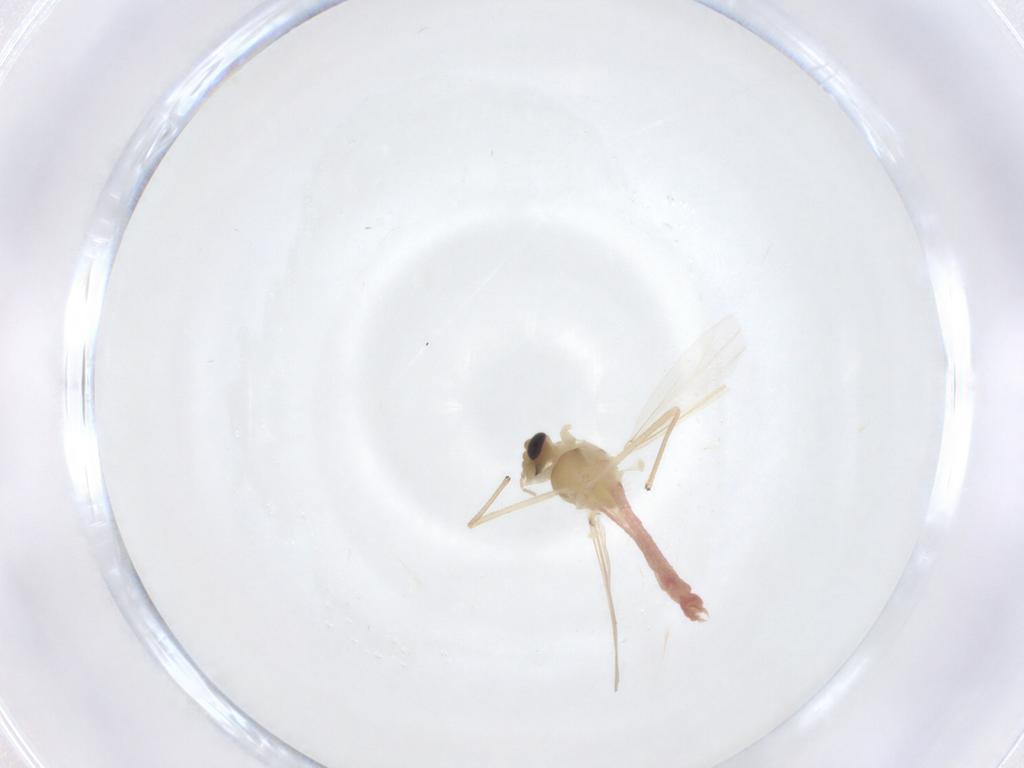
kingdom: Animalia
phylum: Arthropoda
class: Insecta
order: Diptera
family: Chironomidae
